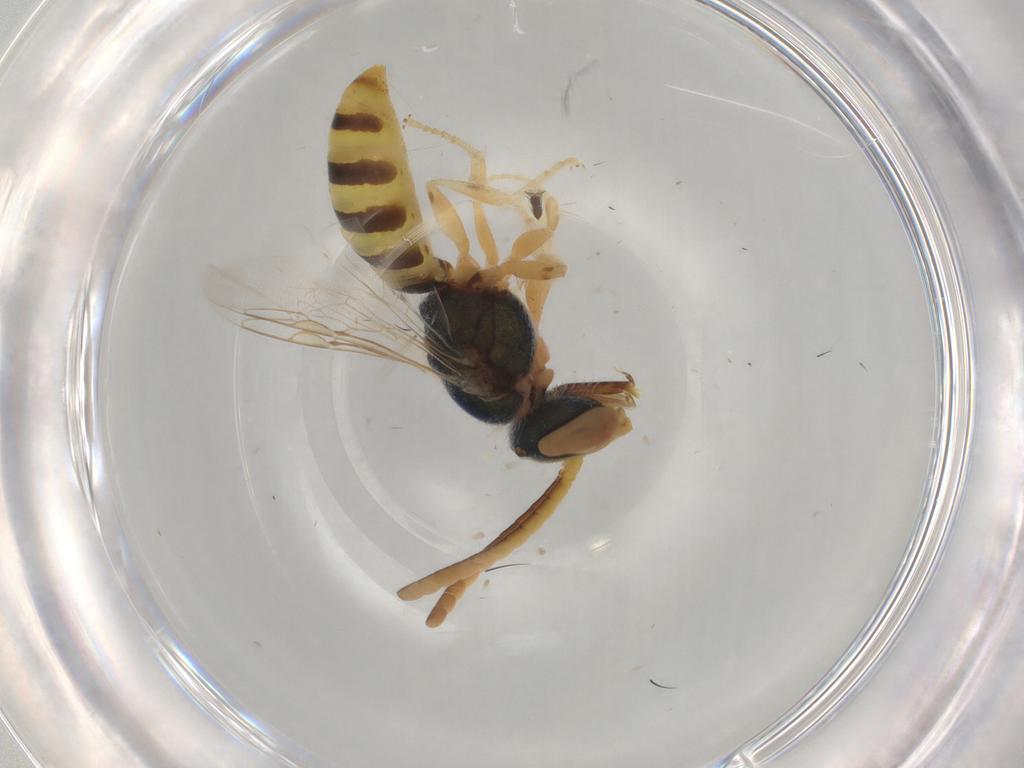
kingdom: Animalia
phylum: Arthropoda
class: Insecta
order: Hymenoptera
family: Halictidae
